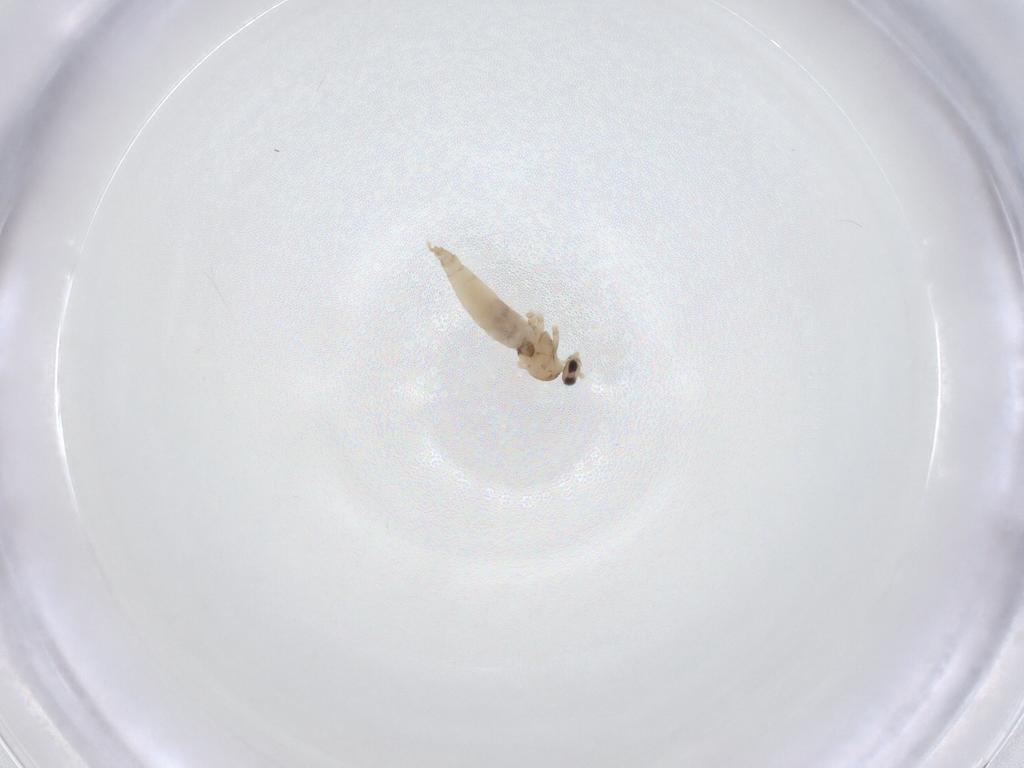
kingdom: Animalia
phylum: Arthropoda
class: Insecta
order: Diptera
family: Cecidomyiidae
